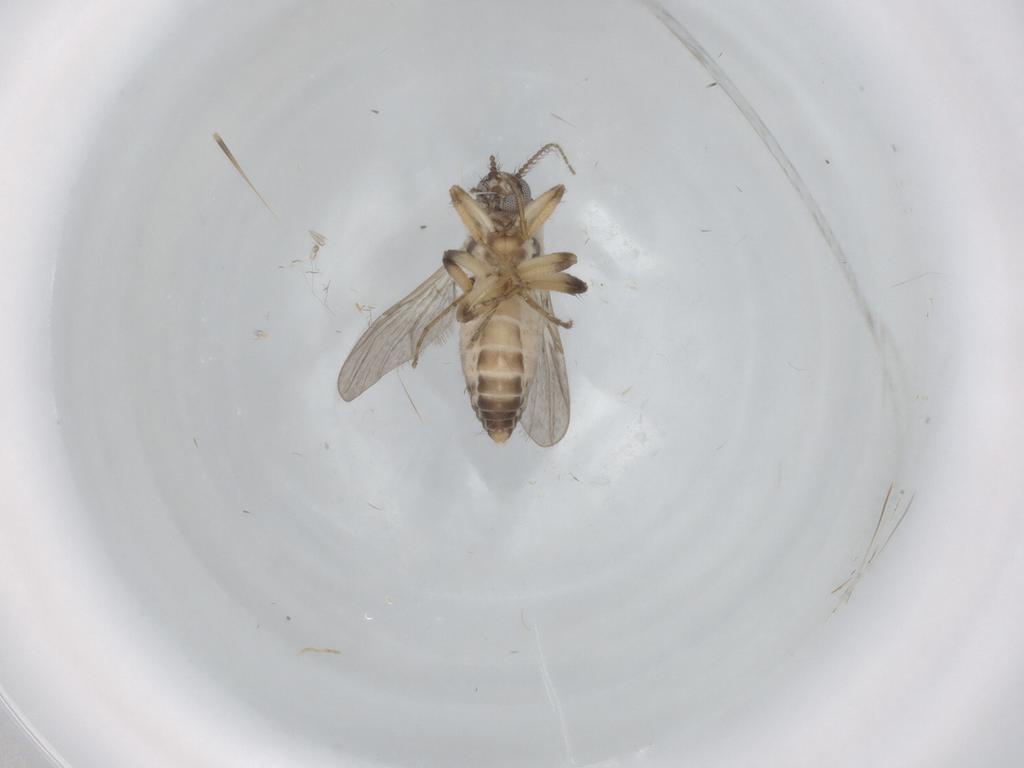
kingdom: Animalia
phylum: Arthropoda
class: Insecta
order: Diptera
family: Ceratopogonidae
